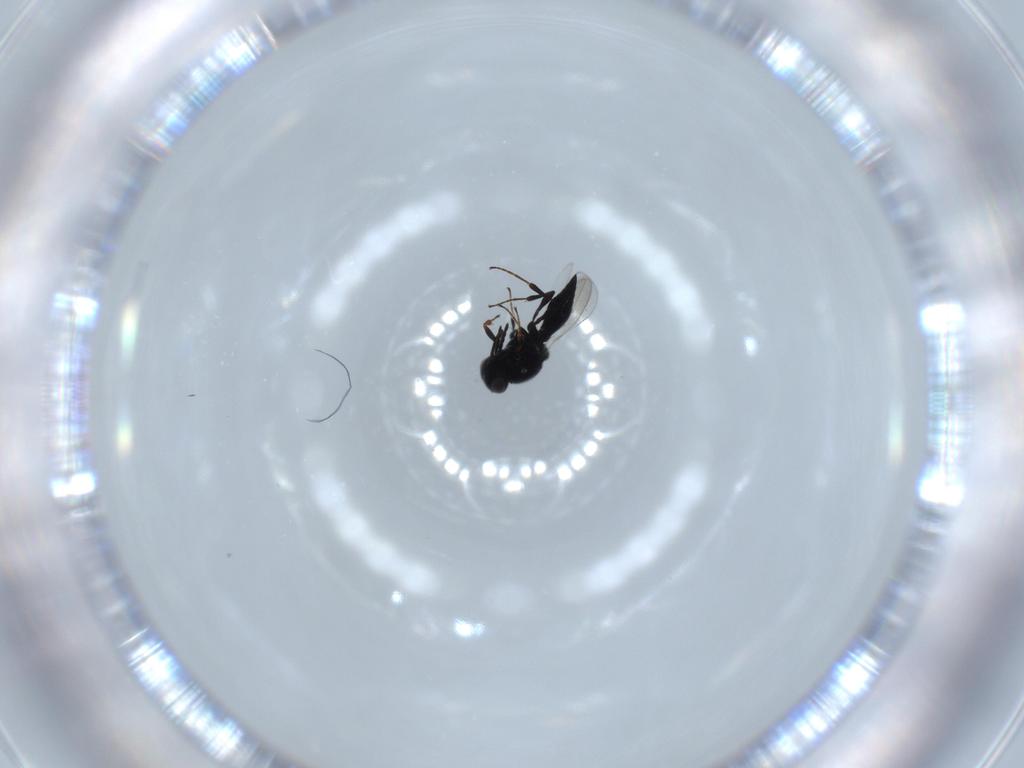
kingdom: Animalia
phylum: Arthropoda
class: Insecta
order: Diptera
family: Mythicomyiidae
